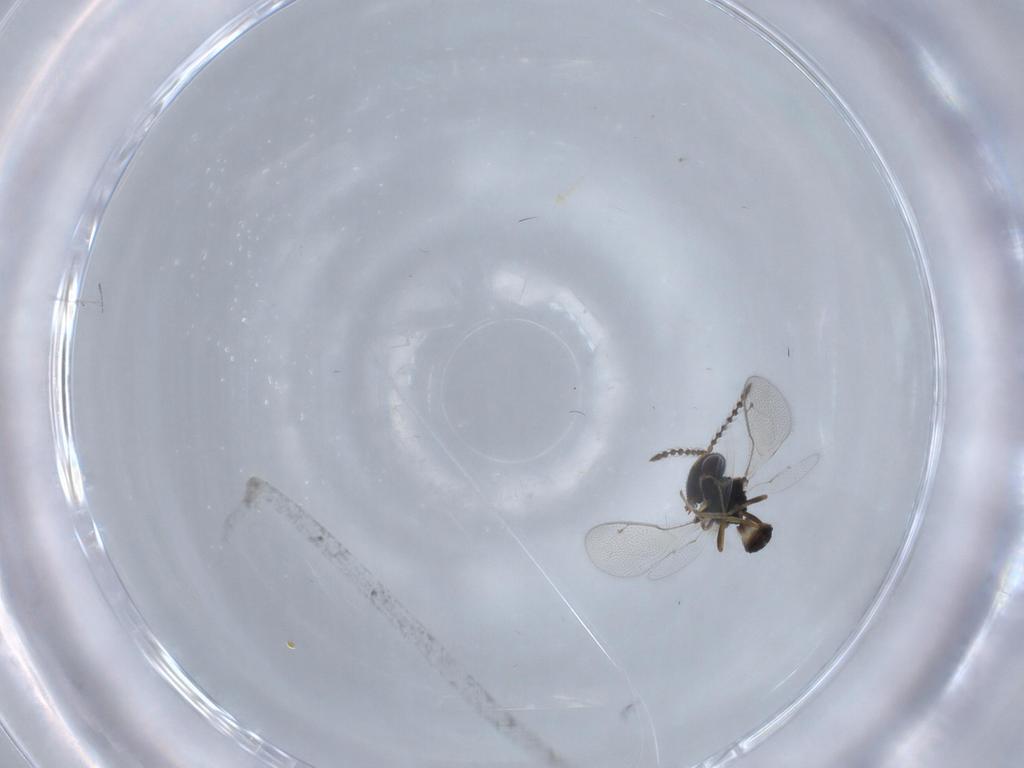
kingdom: Animalia
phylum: Arthropoda
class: Insecta
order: Hymenoptera
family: Pteromalidae
